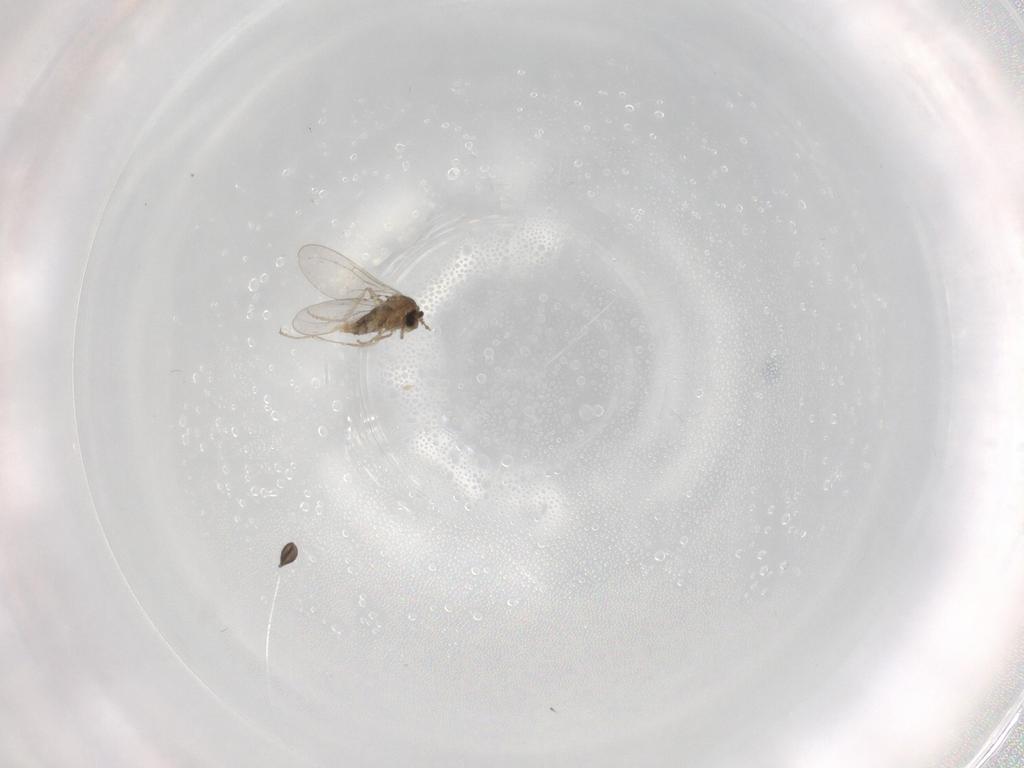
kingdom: Animalia
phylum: Arthropoda
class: Insecta
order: Diptera
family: Cecidomyiidae
